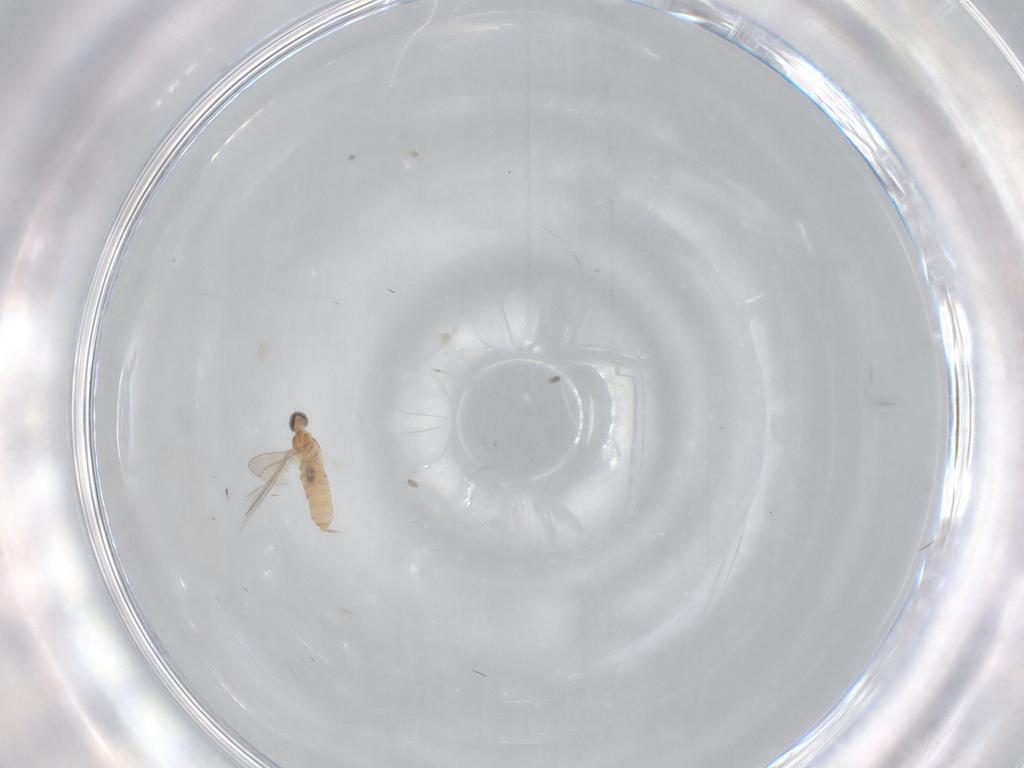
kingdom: Animalia
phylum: Arthropoda
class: Insecta
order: Diptera
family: Cecidomyiidae
